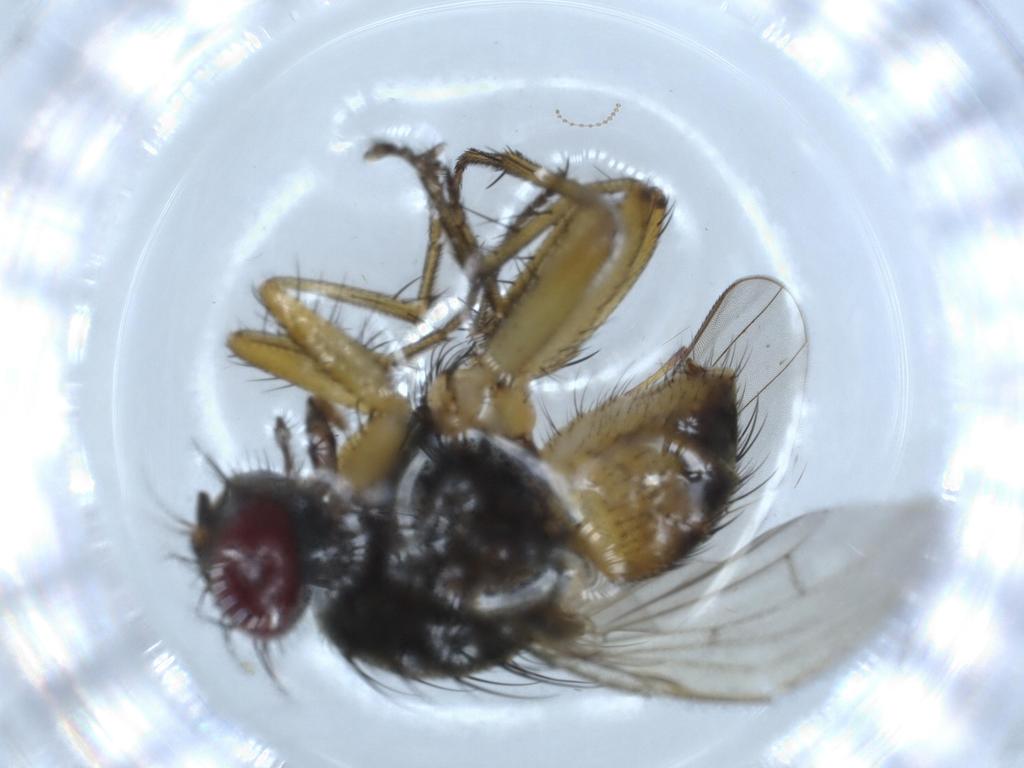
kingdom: Animalia
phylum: Arthropoda
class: Insecta
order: Diptera
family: Muscidae
